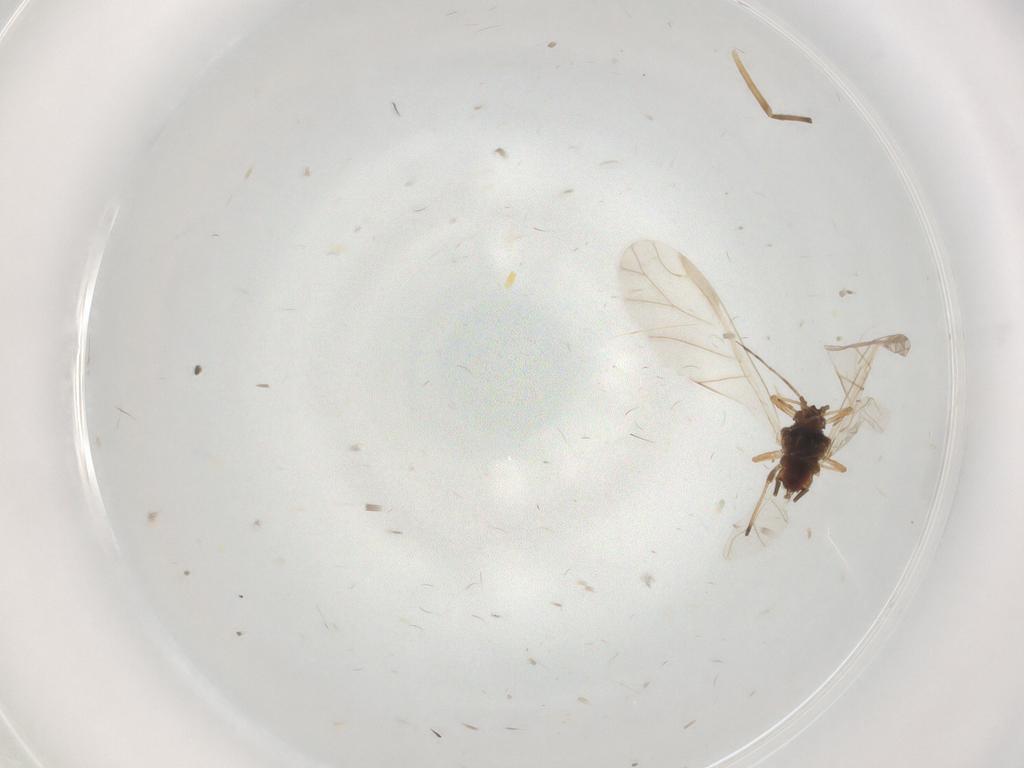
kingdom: Animalia
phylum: Arthropoda
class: Insecta
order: Hemiptera
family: Aphididae
